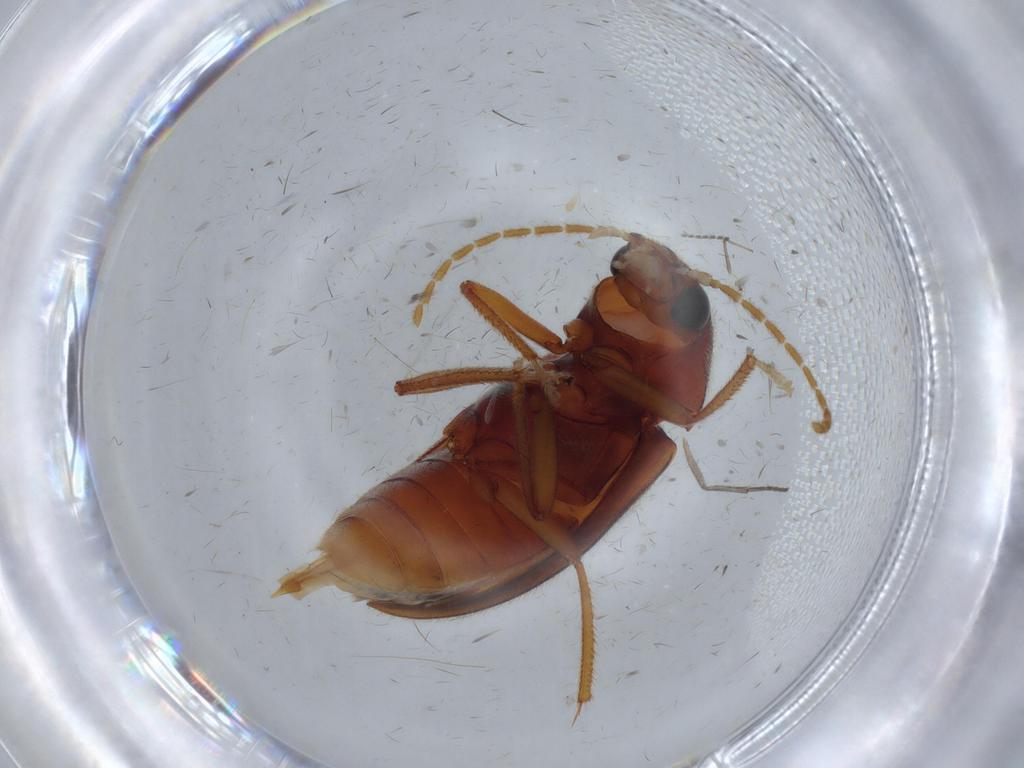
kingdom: Animalia
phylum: Arthropoda
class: Insecta
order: Coleoptera
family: Ptilodactylidae
